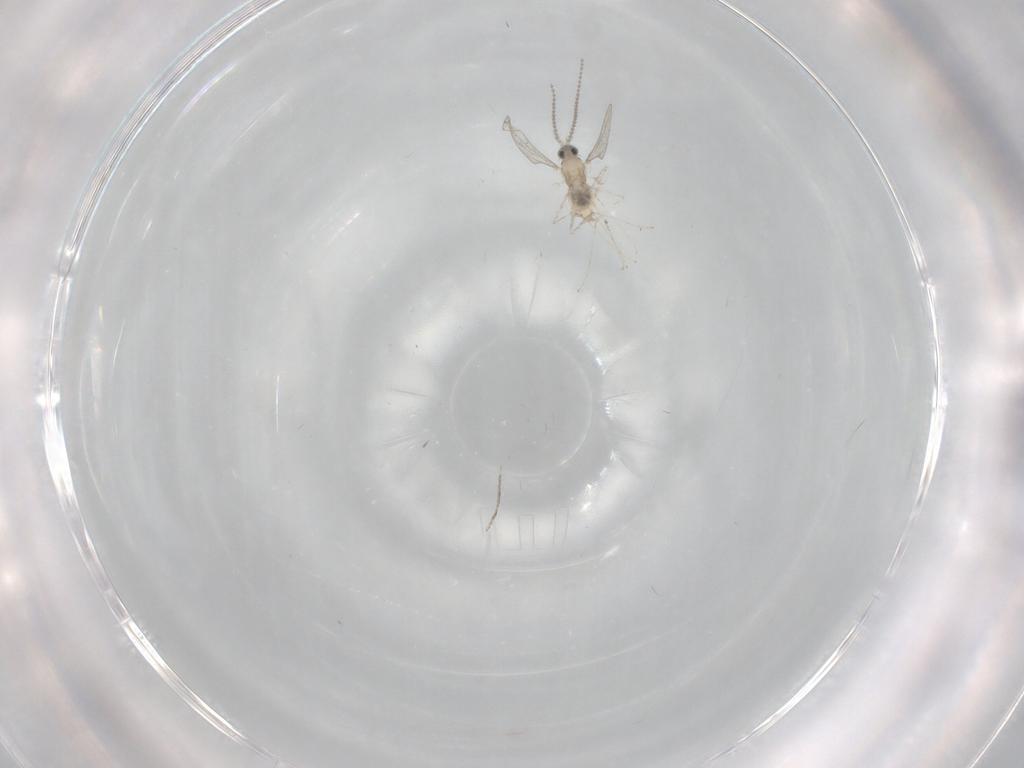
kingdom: Animalia
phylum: Arthropoda
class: Insecta
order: Diptera
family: Cecidomyiidae
